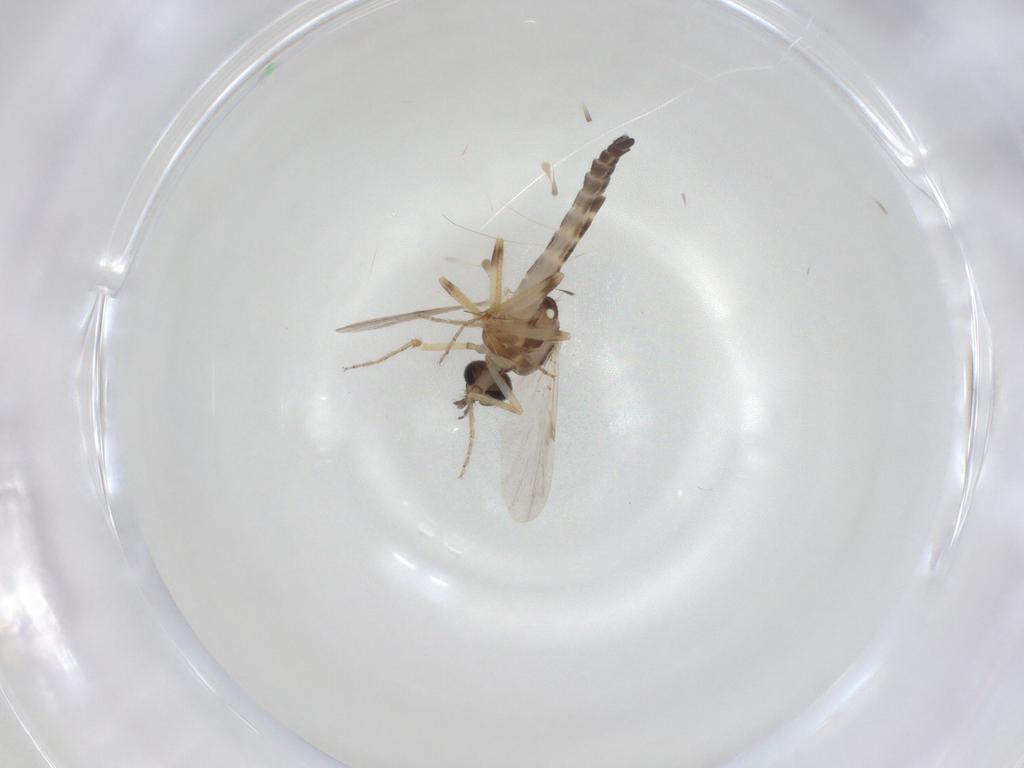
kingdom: Animalia
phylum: Arthropoda
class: Insecta
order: Diptera
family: Ceratopogonidae
